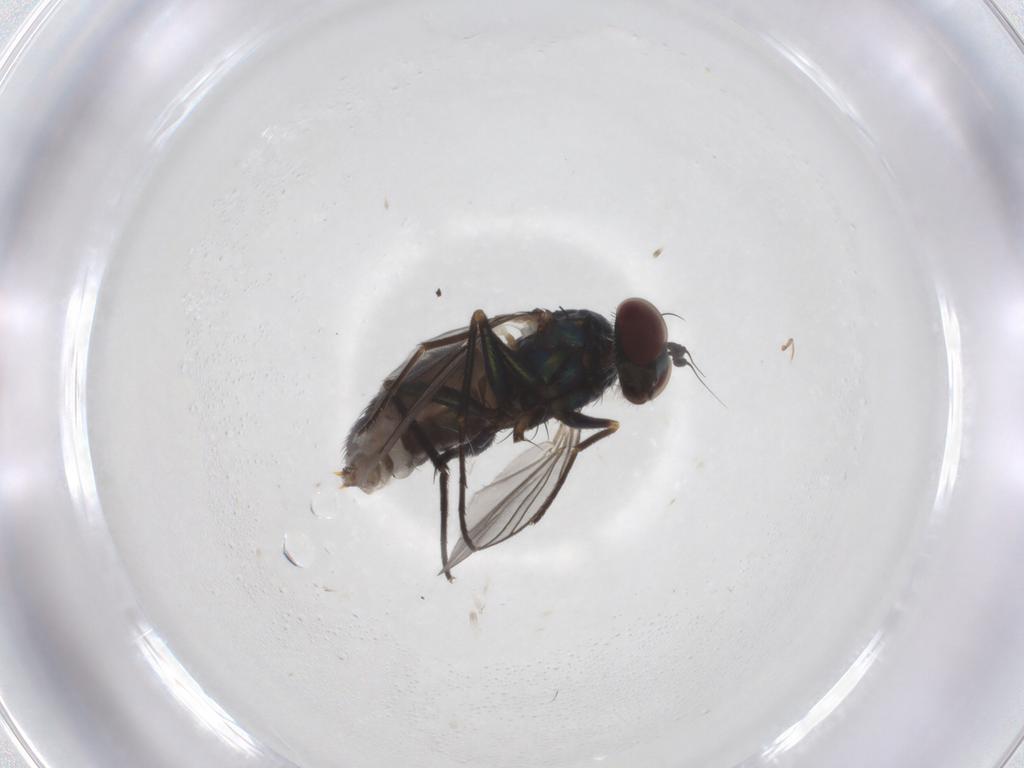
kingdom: Animalia
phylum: Arthropoda
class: Insecta
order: Diptera
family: Dolichopodidae
